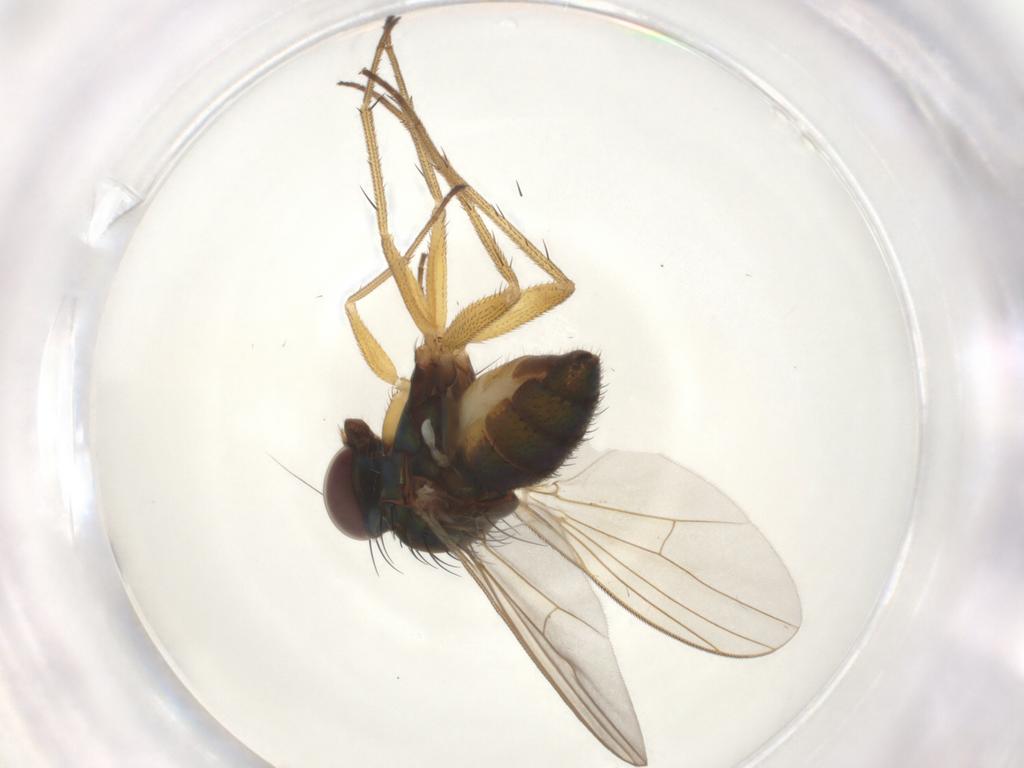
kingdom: Animalia
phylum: Arthropoda
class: Insecta
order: Diptera
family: Dolichopodidae
